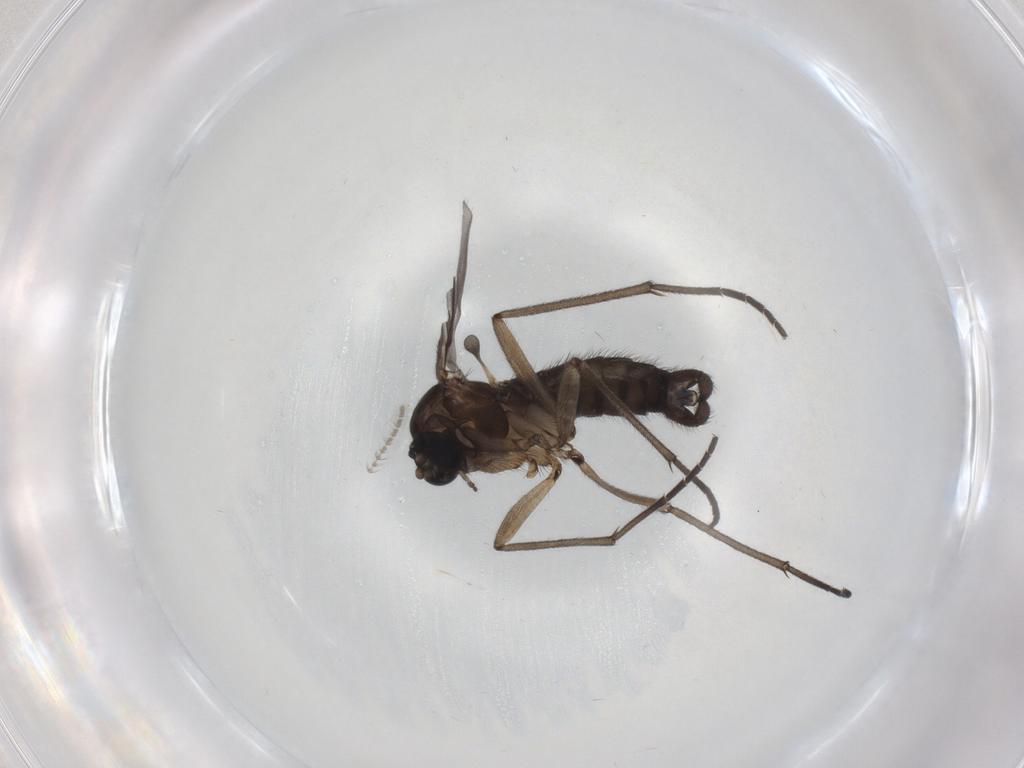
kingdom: Animalia
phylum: Arthropoda
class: Insecta
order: Diptera
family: Sciaridae
